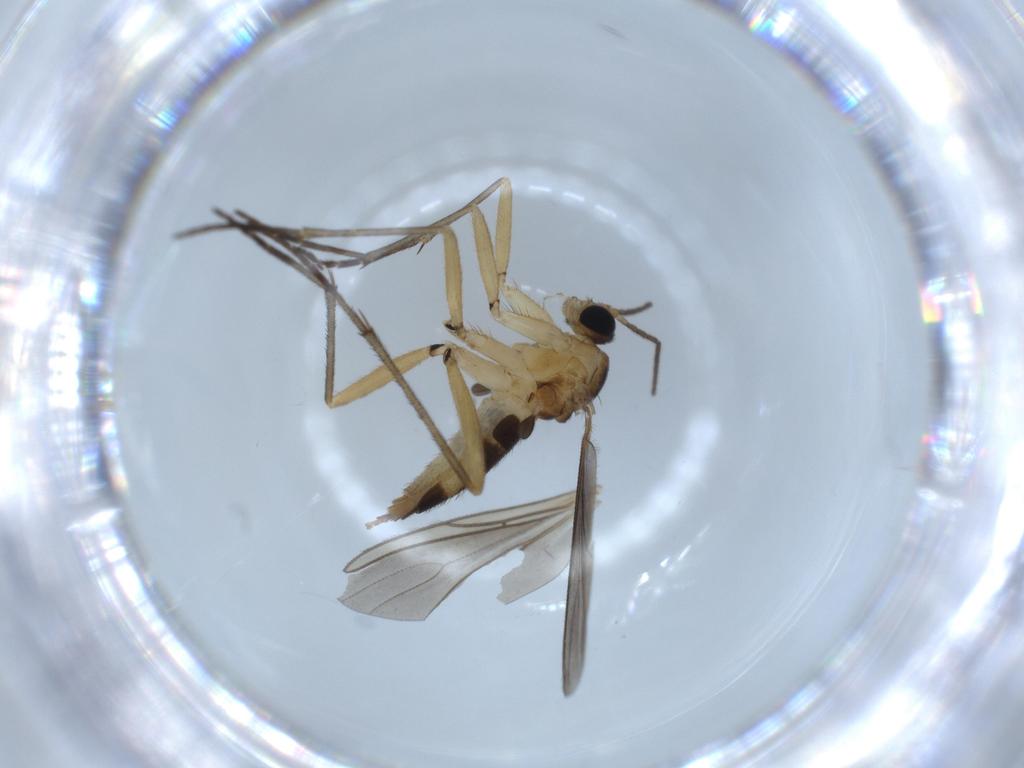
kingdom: Animalia
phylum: Arthropoda
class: Insecta
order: Diptera
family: Sciaridae
